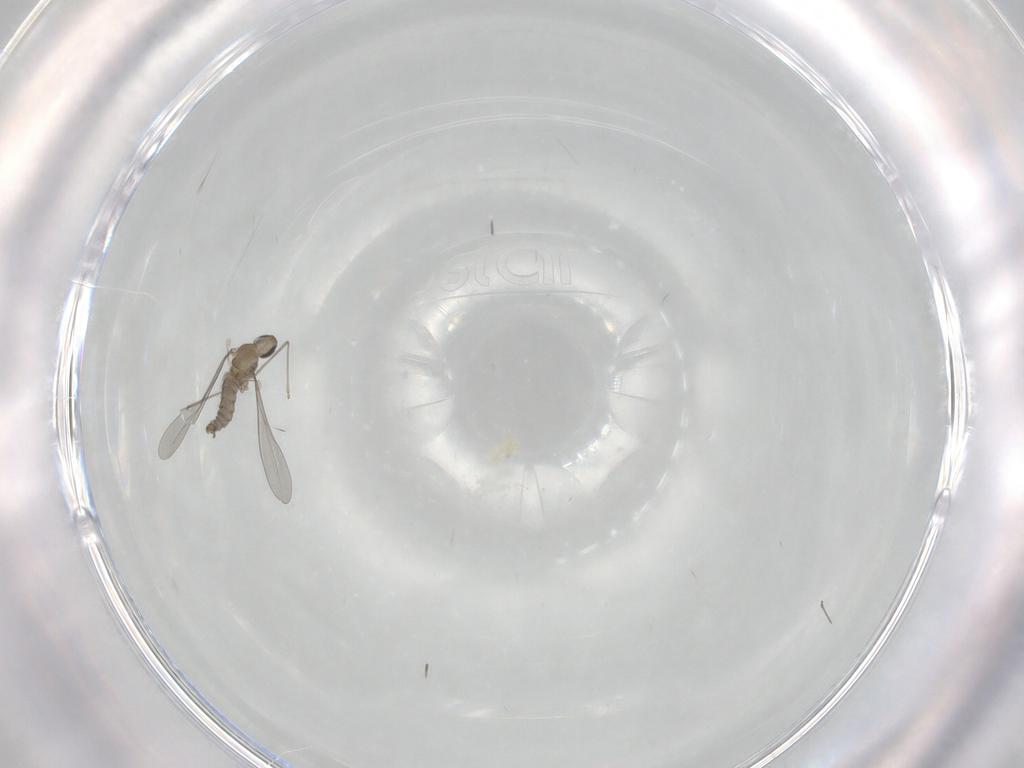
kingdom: Animalia
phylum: Arthropoda
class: Insecta
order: Diptera
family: Cecidomyiidae
